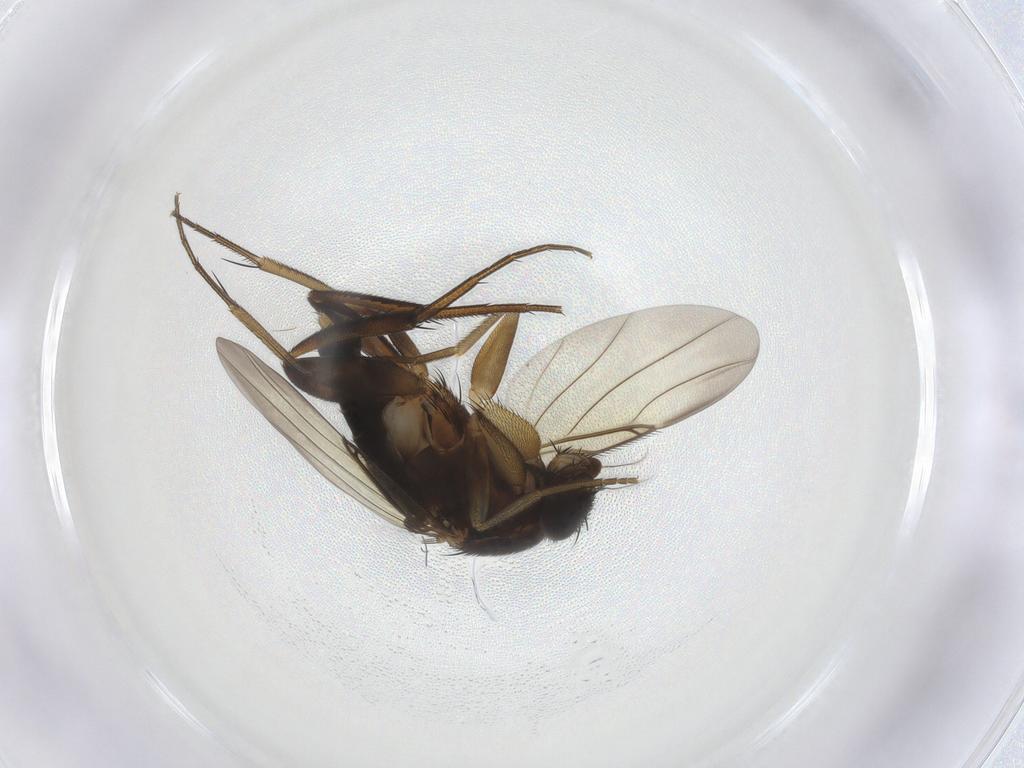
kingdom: Animalia
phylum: Arthropoda
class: Insecta
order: Diptera
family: Phoridae
